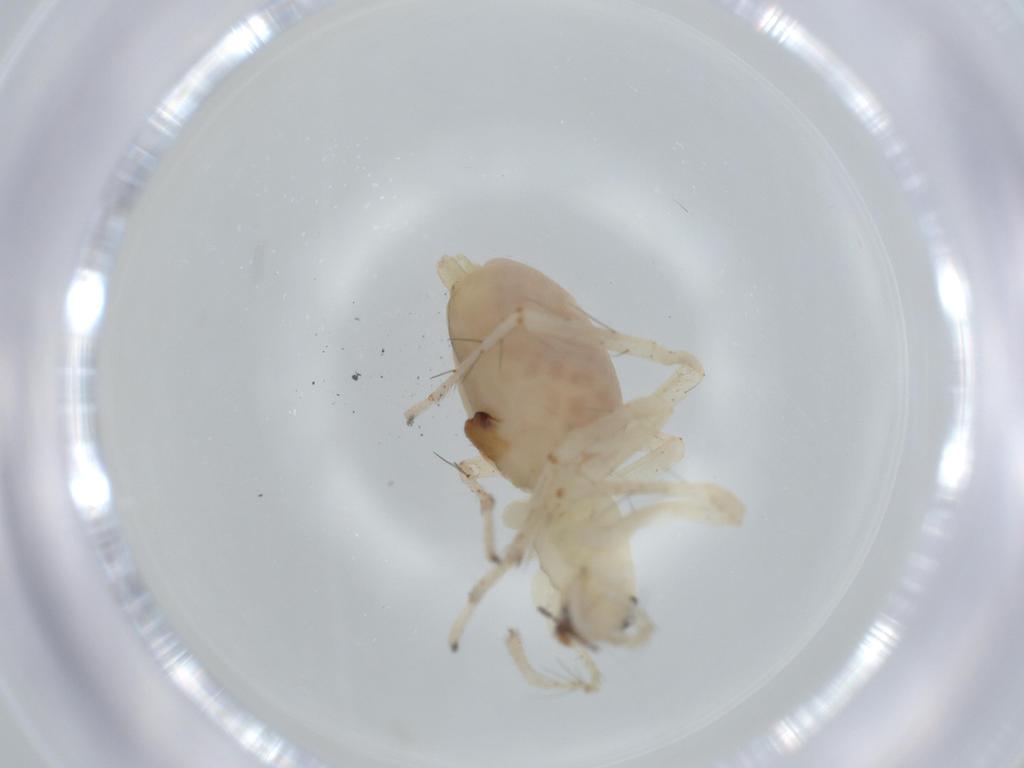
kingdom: Animalia
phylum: Arthropoda
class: Arachnida
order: Araneae
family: Anyphaenidae
